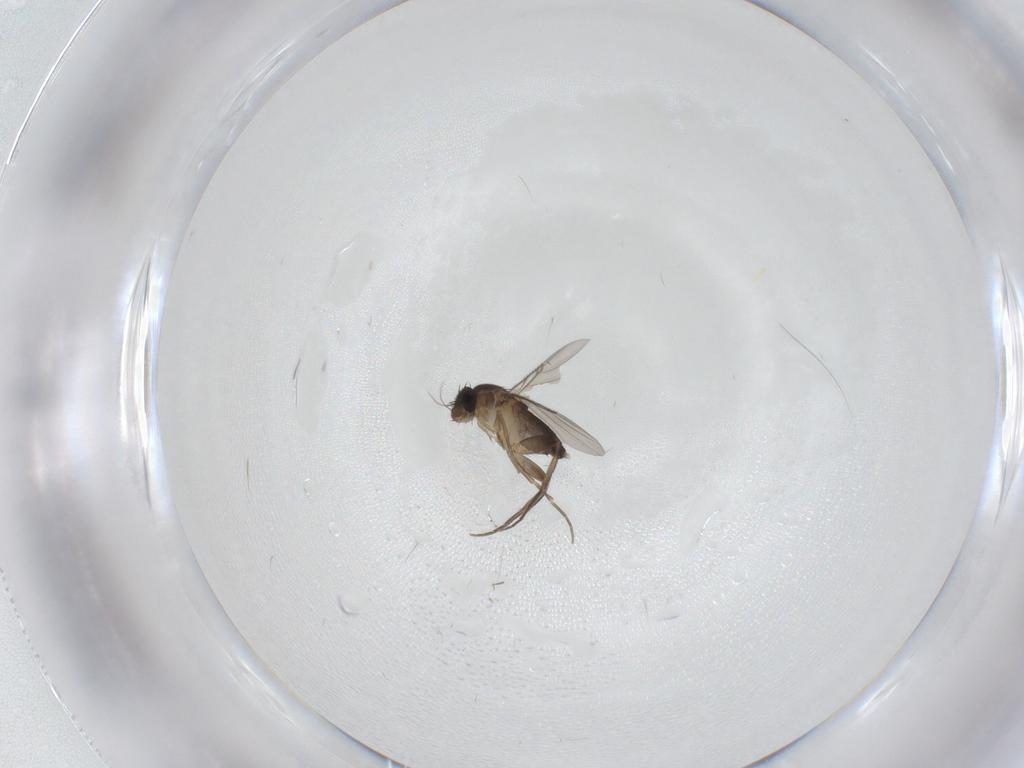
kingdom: Animalia
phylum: Arthropoda
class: Insecta
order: Diptera
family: Phoridae
